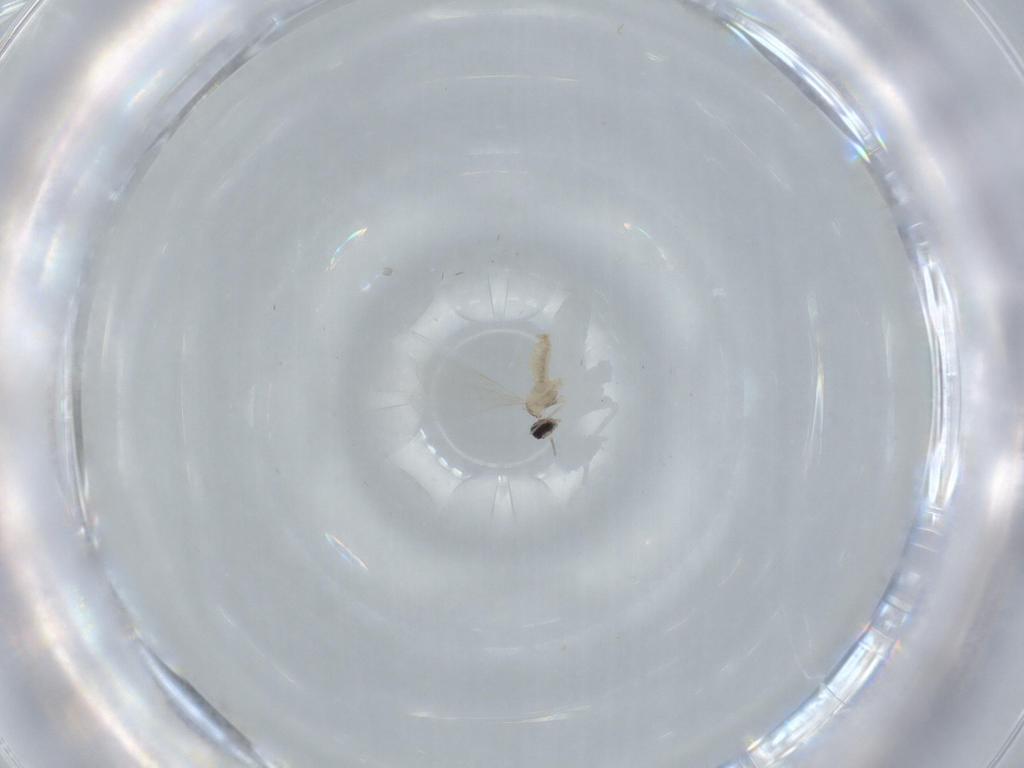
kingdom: Animalia
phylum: Arthropoda
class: Insecta
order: Diptera
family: Cecidomyiidae
